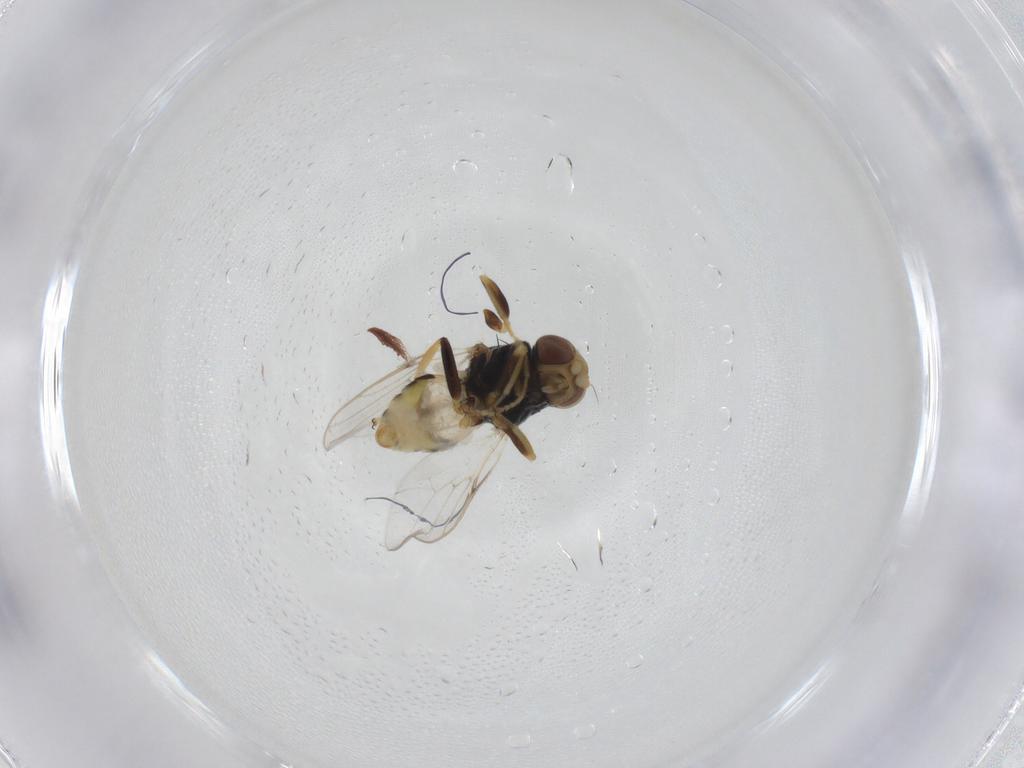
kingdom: Animalia
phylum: Arthropoda
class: Insecta
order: Diptera
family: Chloropidae
